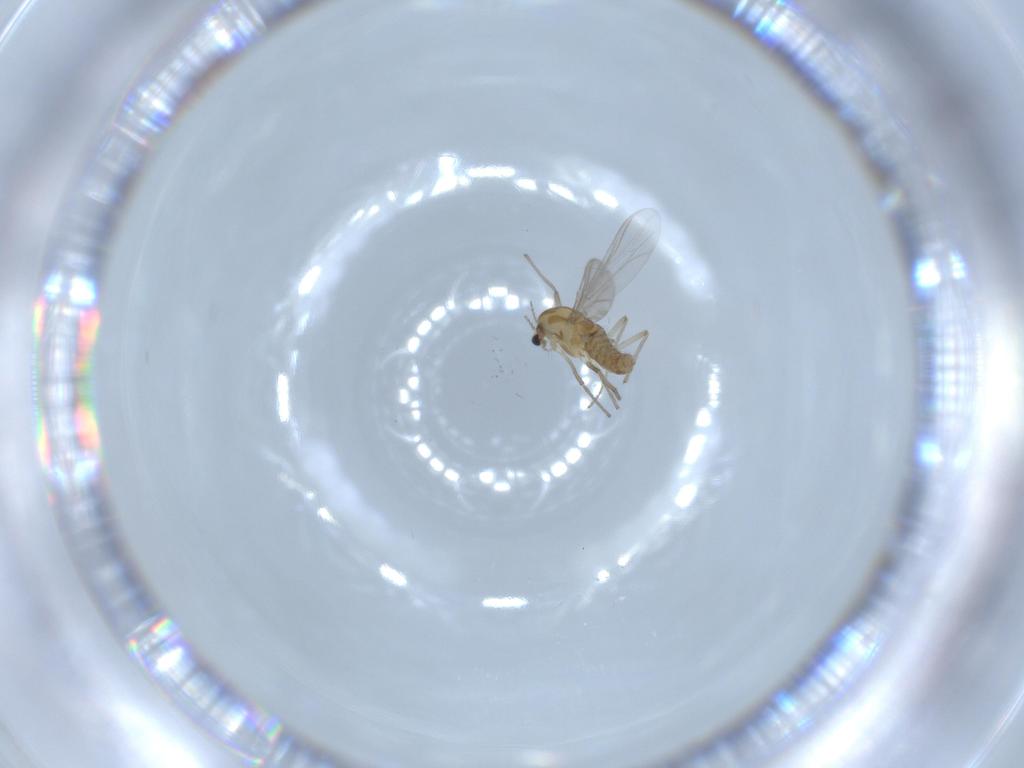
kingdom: Animalia
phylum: Arthropoda
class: Insecta
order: Diptera
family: Chironomidae
